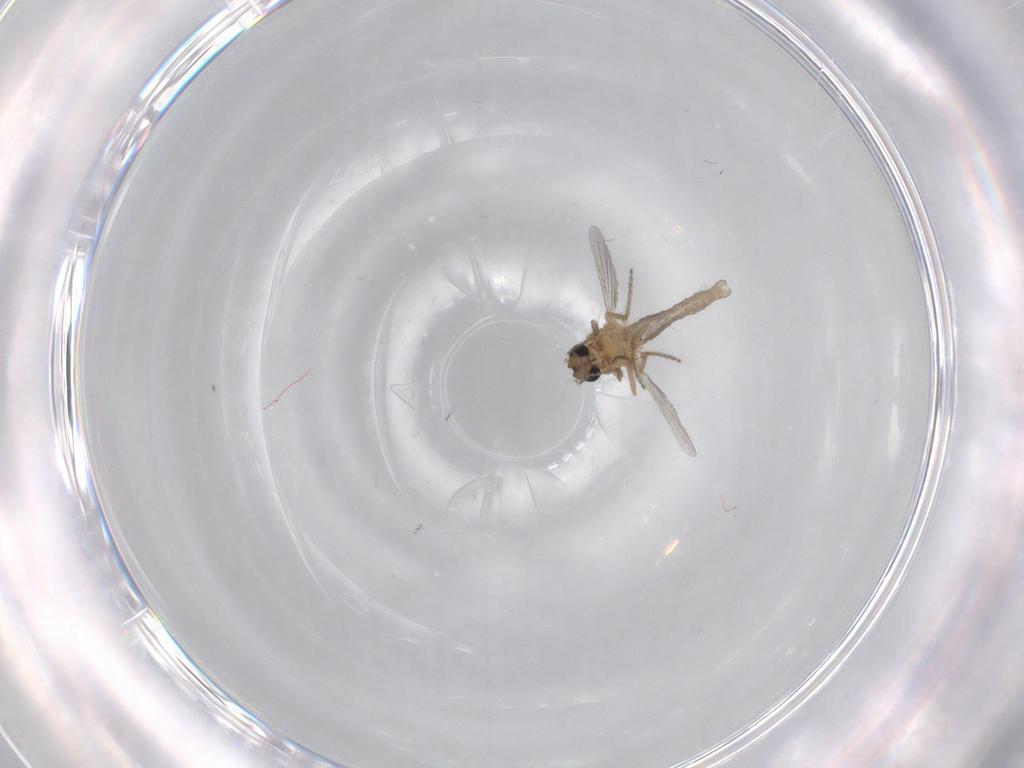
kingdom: Animalia
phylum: Arthropoda
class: Insecta
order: Diptera
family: Ceratopogonidae
